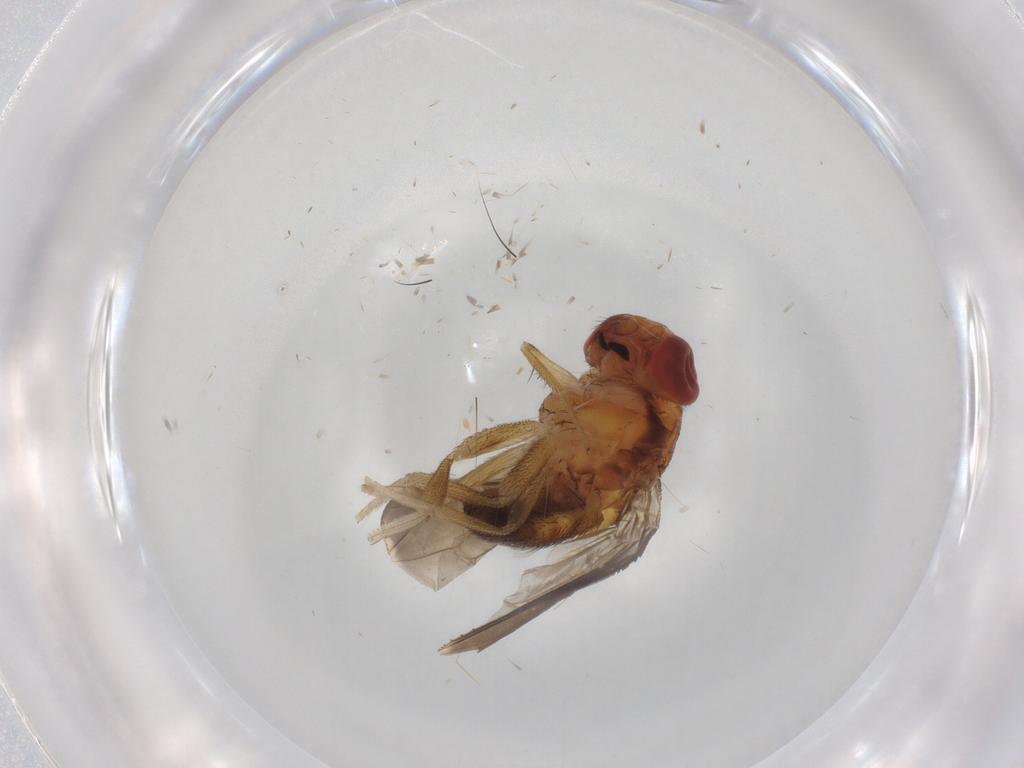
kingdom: Animalia
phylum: Arthropoda
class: Insecta
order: Diptera
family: Drosophilidae
